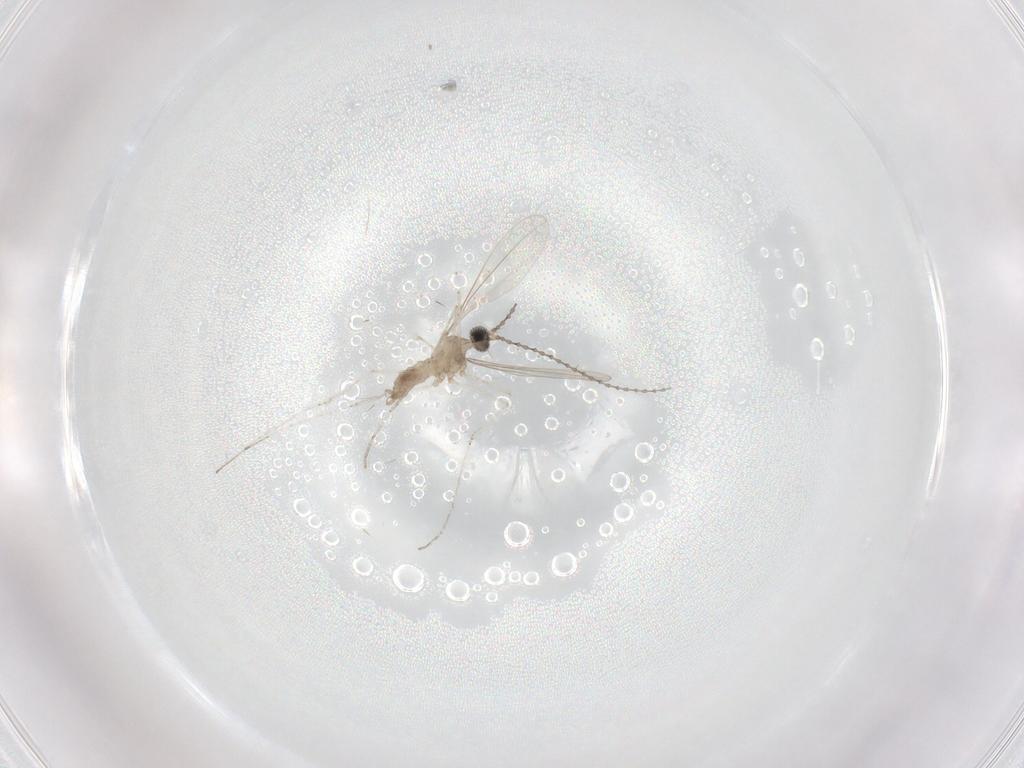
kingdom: Animalia
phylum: Arthropoda
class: Insecta
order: Diptera
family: Cecidomyiidae
